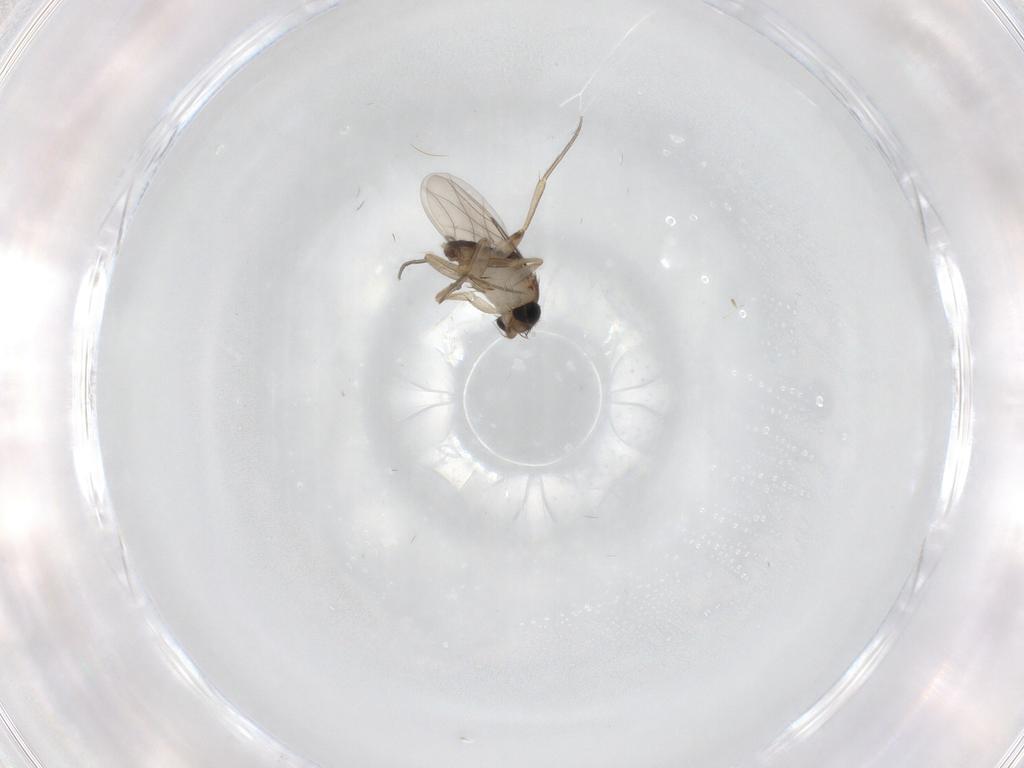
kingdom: Animalia
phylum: Arthropoda
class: Insecta
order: Diptera
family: Phoridae
